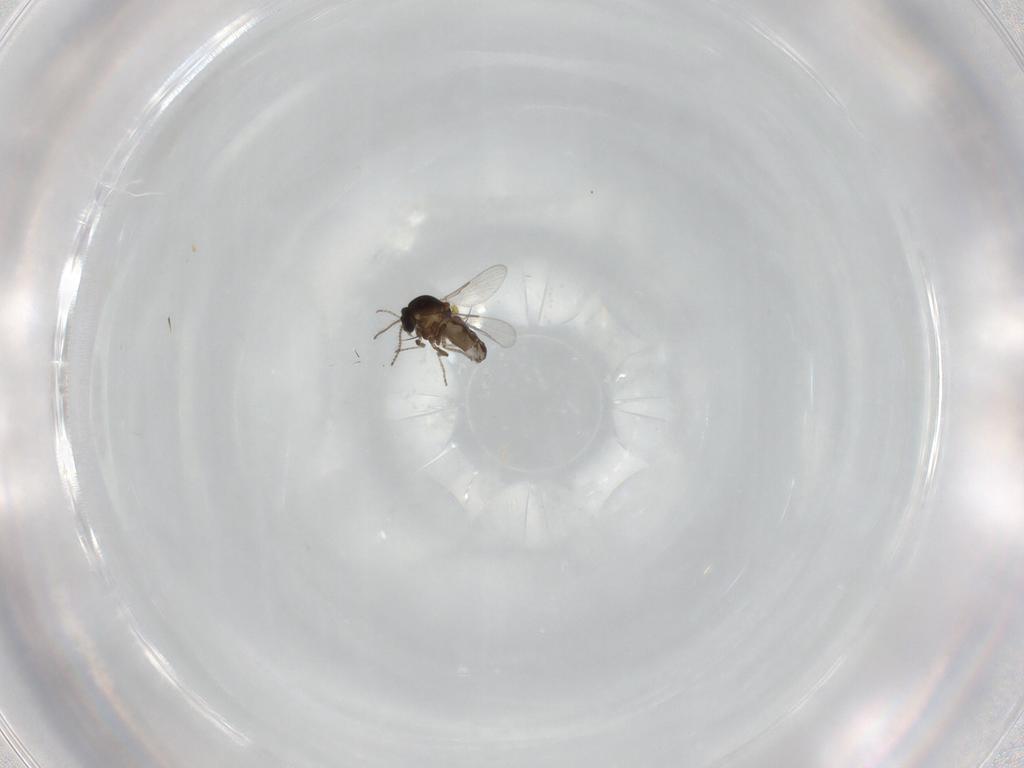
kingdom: Animalia
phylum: Arthropoda
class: Insecta
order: Diptera
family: Ceratopogonidae
